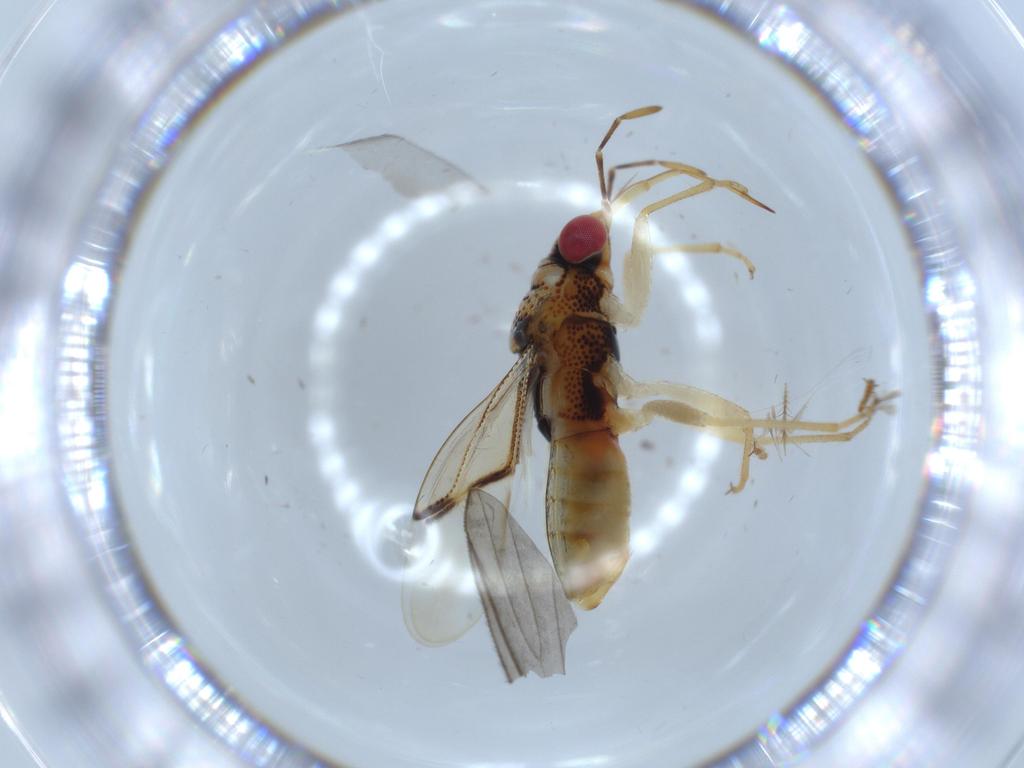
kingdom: Animalia
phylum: Arthropoda
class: Insecta
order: Hemiptera
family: Geocoridae
